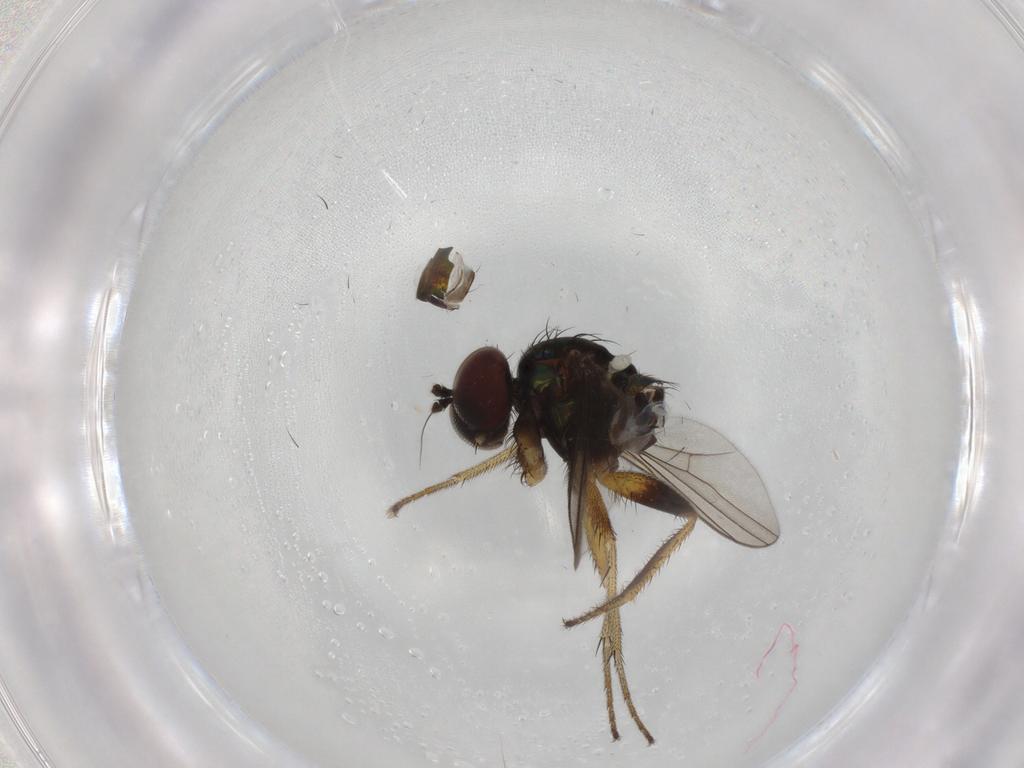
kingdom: Animalia
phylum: Arthropoda
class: Insecta
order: Diptera
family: Dolichopodidae
